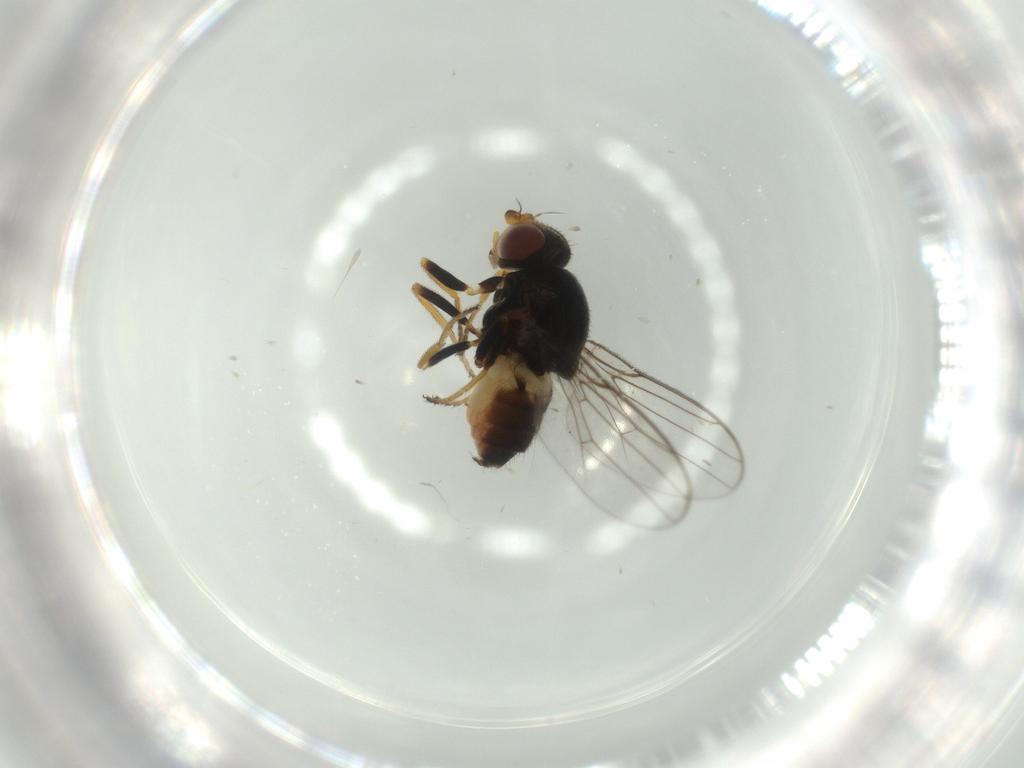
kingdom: Animalia
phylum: Arthropoda
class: Insecta
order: Diptera
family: Chloropidae
